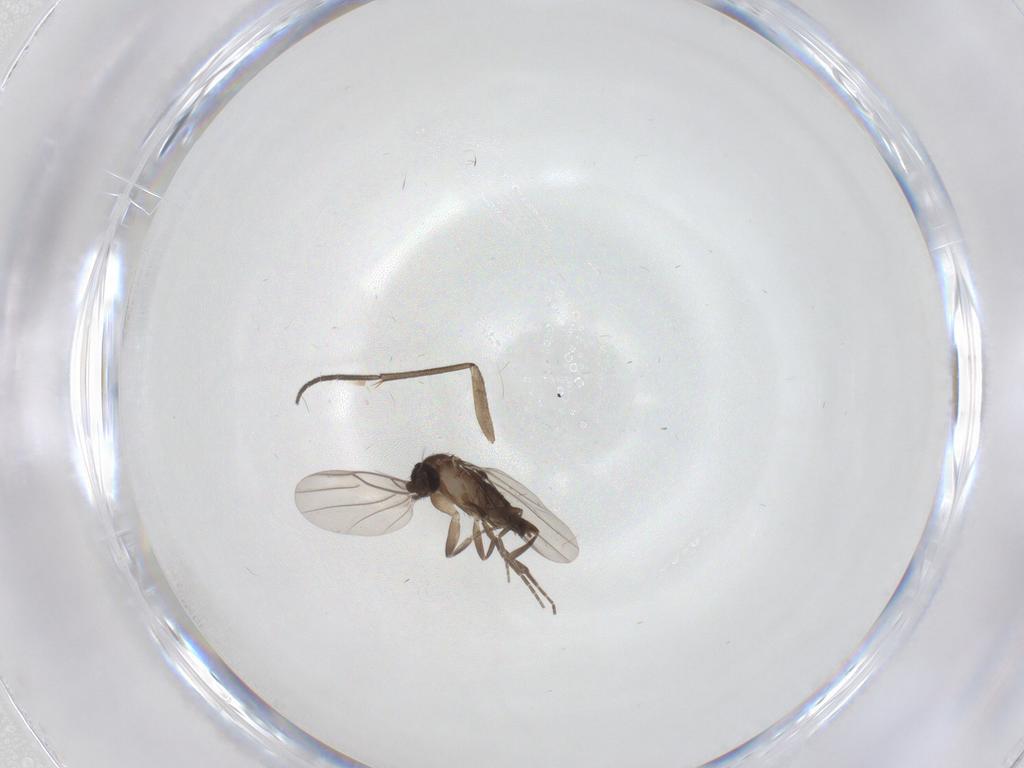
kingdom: Animalia
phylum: Arthropoda
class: Insecta
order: Diptera
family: Sciaridae
